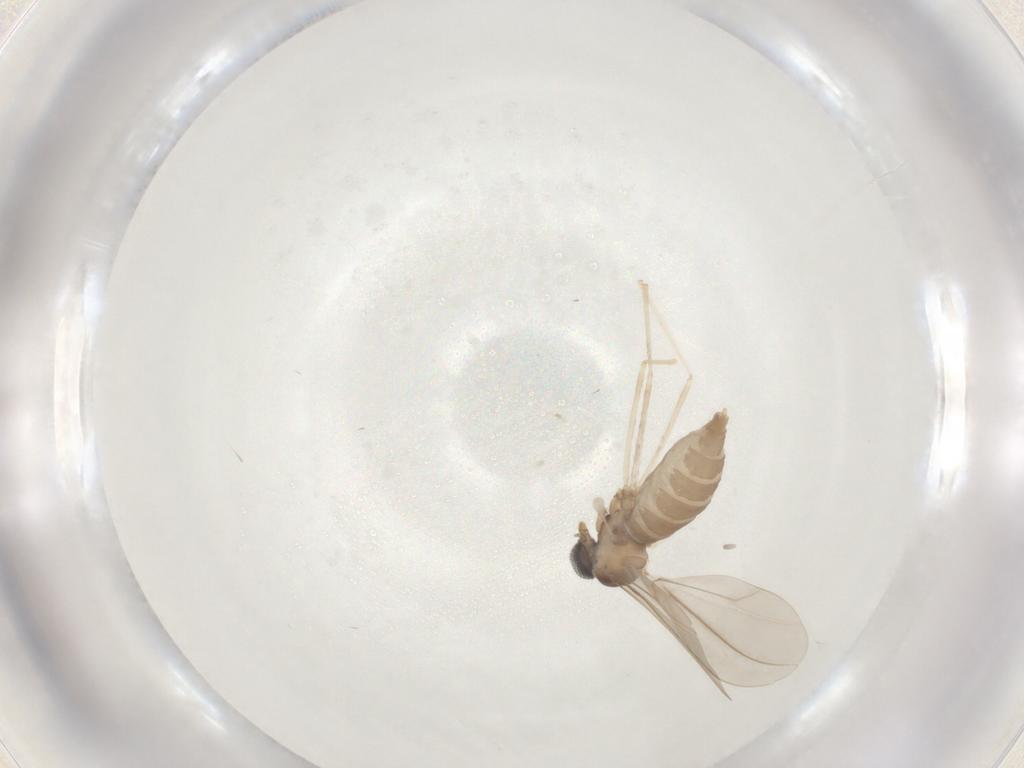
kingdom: Animalia
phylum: Arthropoda
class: Insecta
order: Diptera
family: Cecidomyiidae
